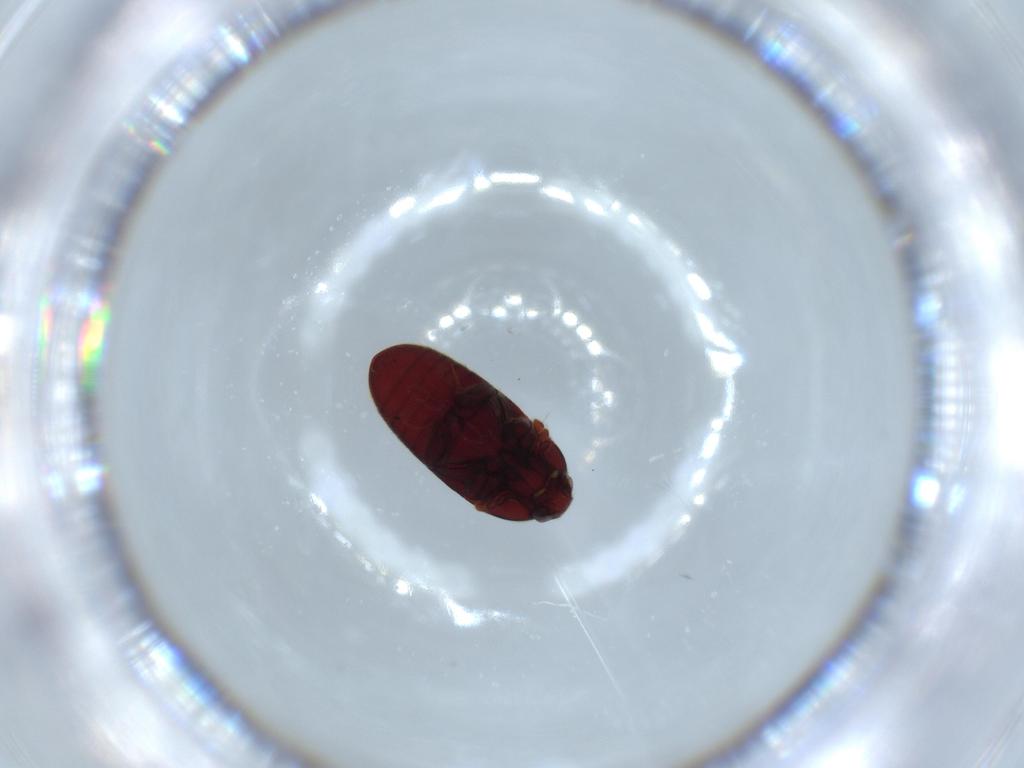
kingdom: Animalia
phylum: Arthropoda
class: Insecta
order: Coleoptera
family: Throscidae
